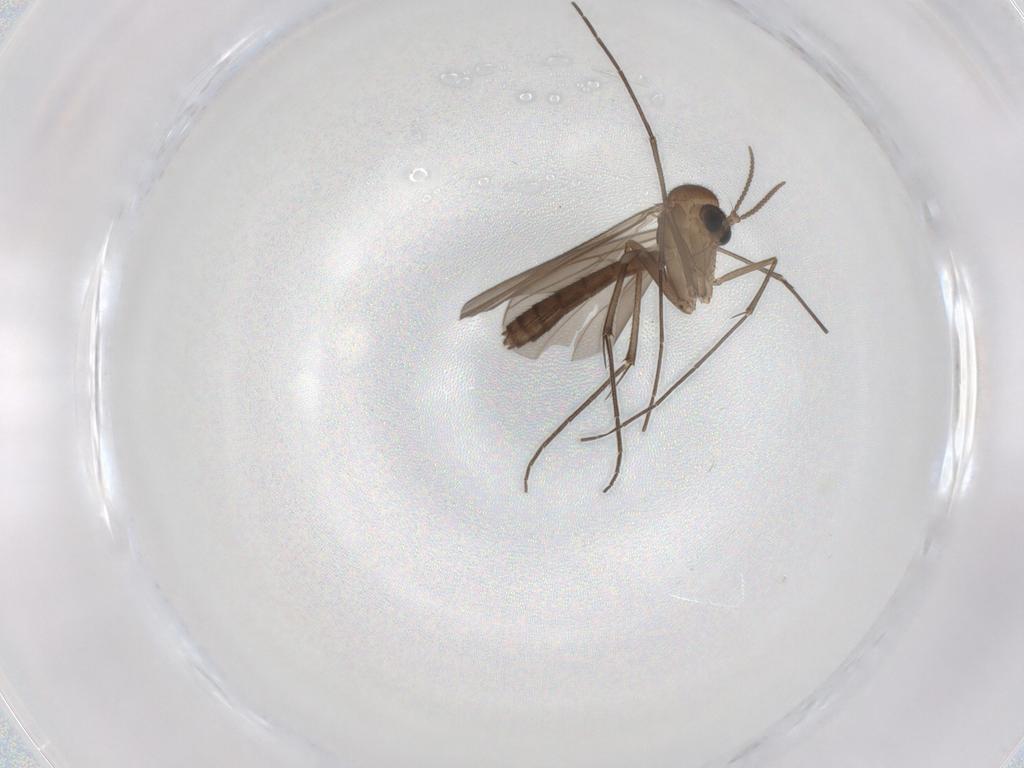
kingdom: Animalia
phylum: Arthropoda
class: Insecta
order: Diptera
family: Mycetophilidae
